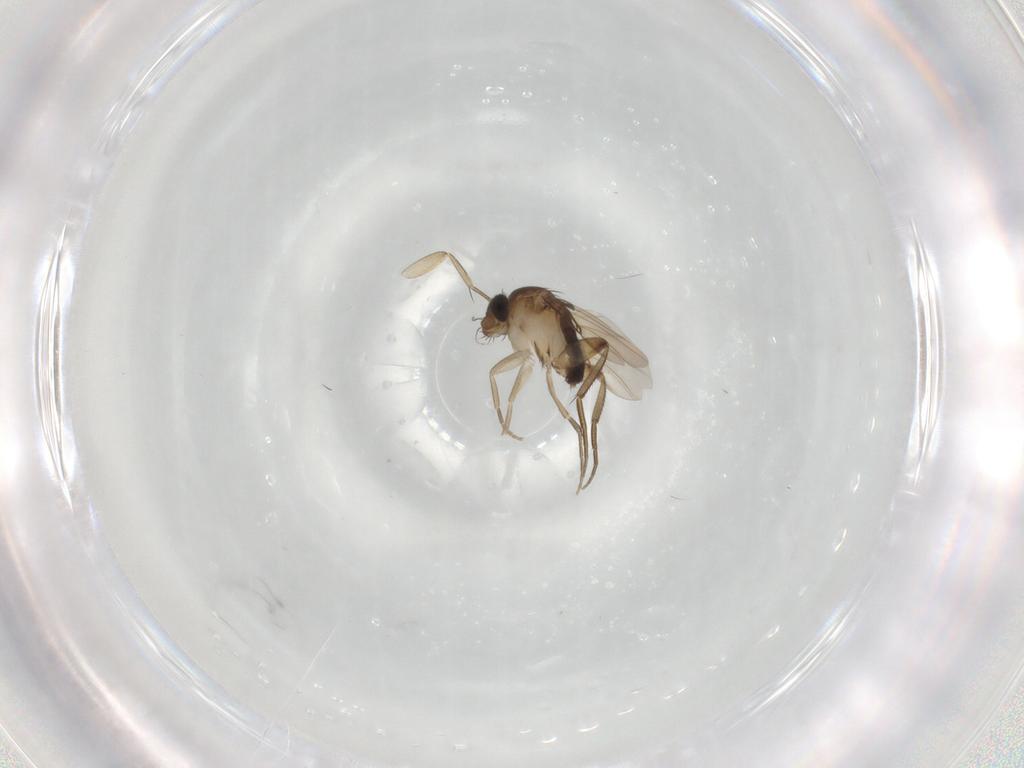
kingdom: Animalia
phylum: Arthropoda
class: Insecta
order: Diptera
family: Phoridae
